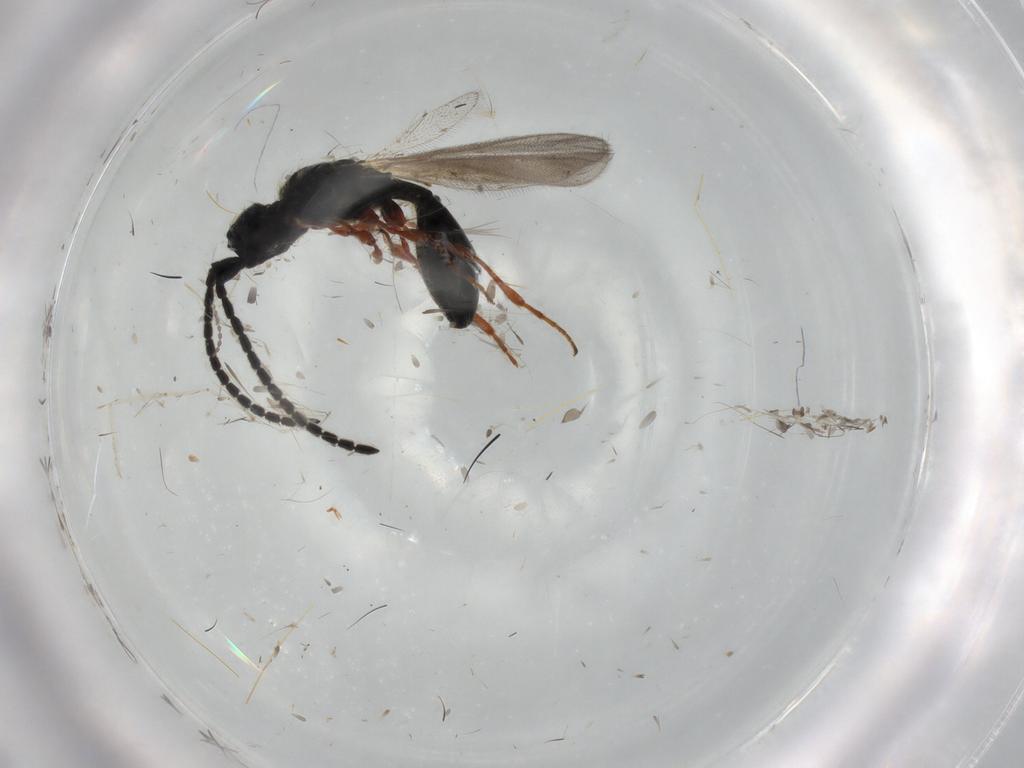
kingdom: Animalia
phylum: Arthropoda
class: Insecta
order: Hymenoptera
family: Diapriidae
